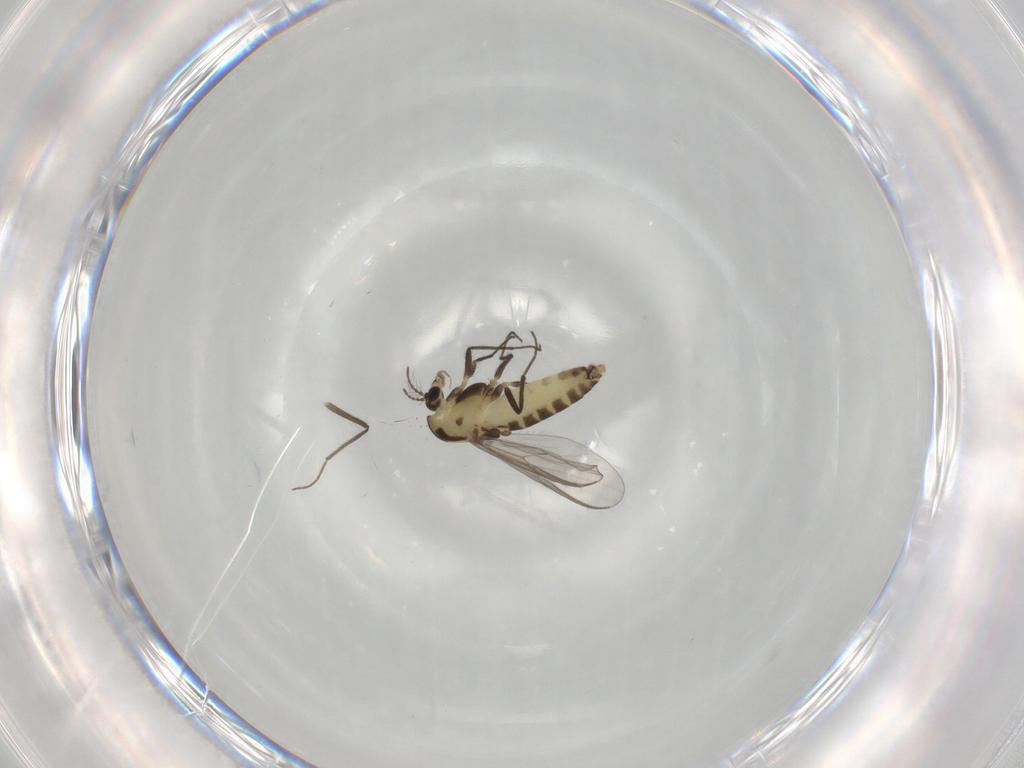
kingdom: Animalia
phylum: Arthropoda
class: Insecta
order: Diptera
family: Chironomidae
